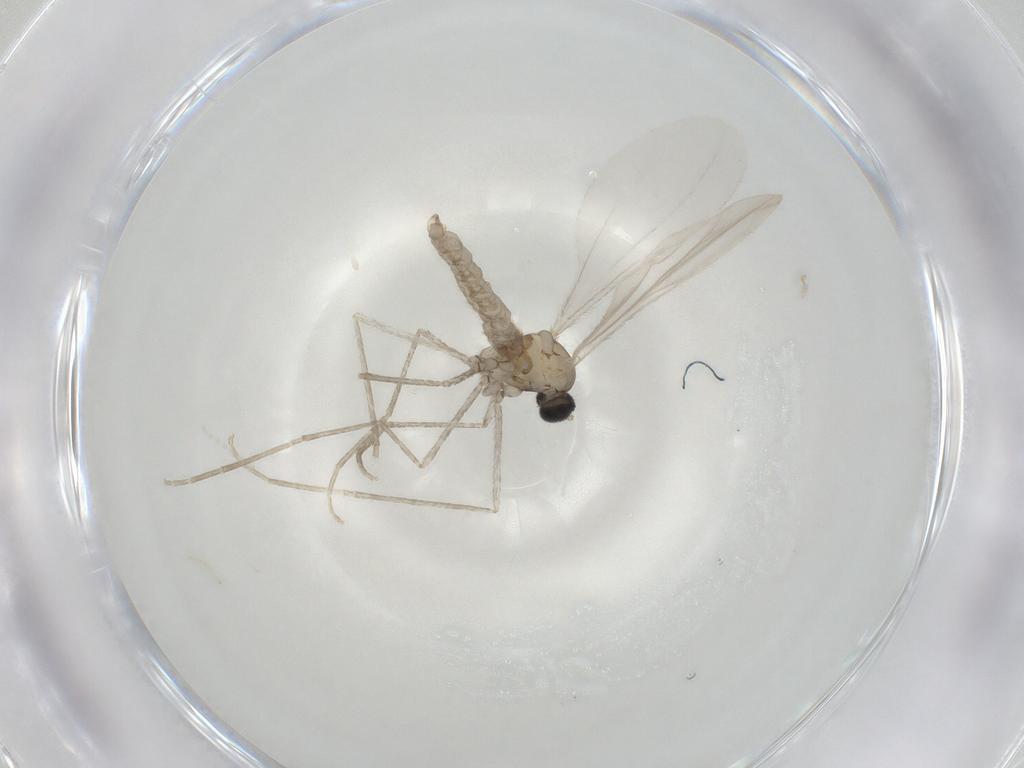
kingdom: Animalia
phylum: Arthropoda
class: Insecta
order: Diptera
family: Cecidomyiidae
